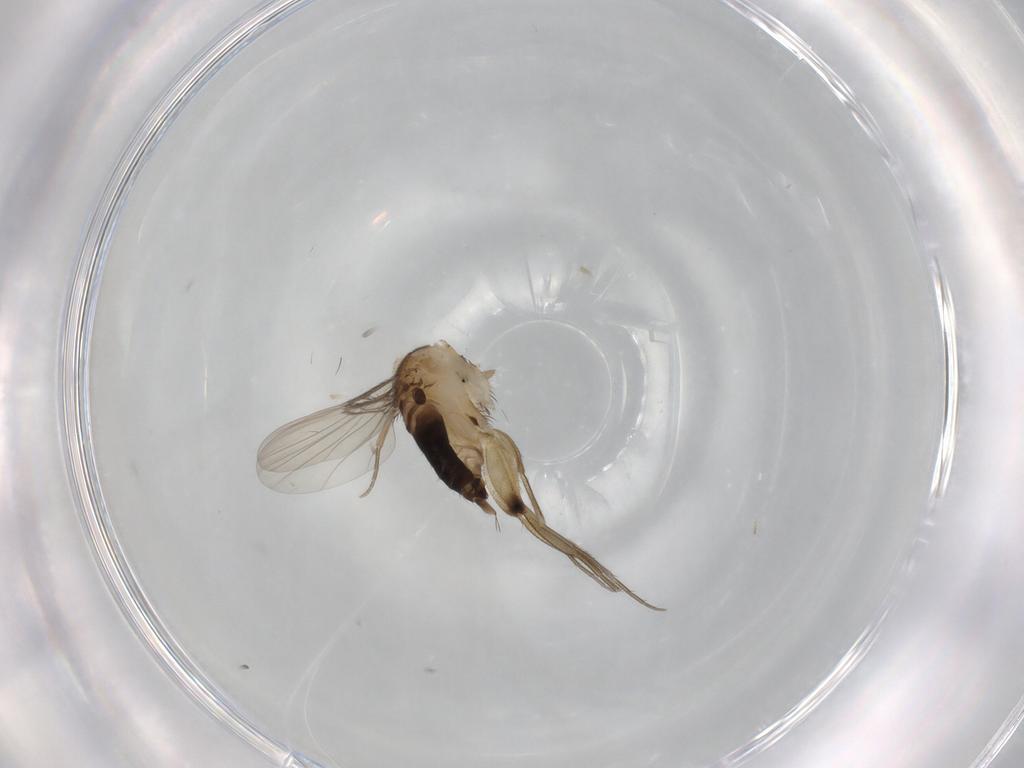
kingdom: Animalia
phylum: Arthropoda
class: Insecta
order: Diptera
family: Phoridae
